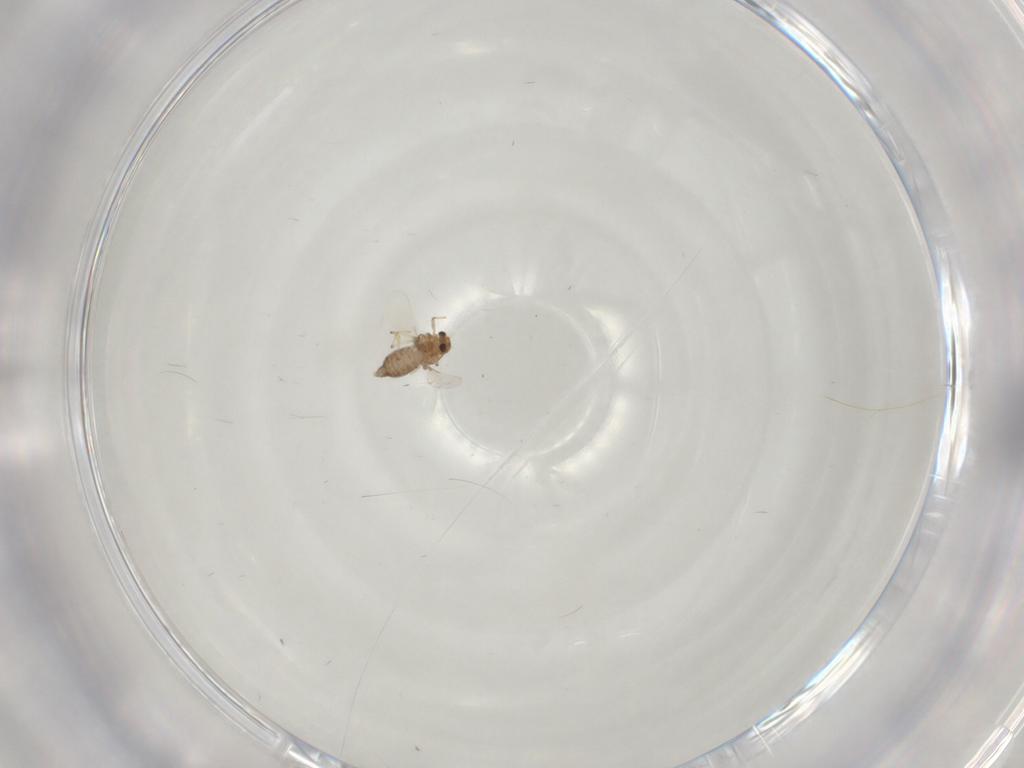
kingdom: Animalia
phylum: Arthropoda
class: Insecta
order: Diptera
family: Chironomidae
